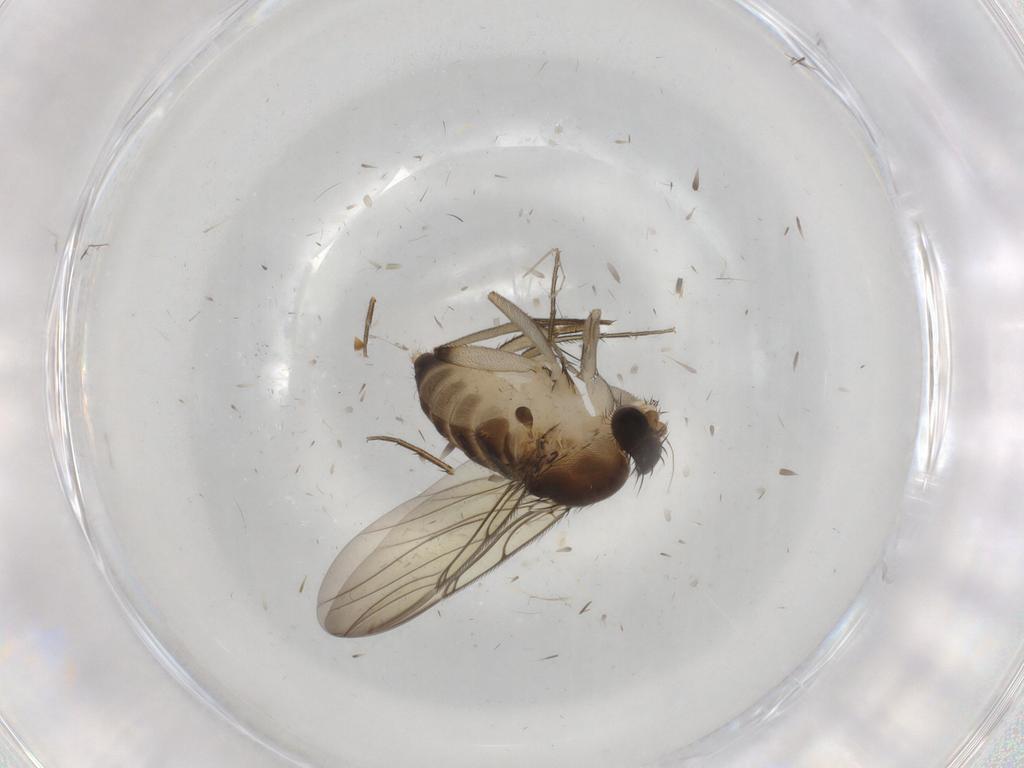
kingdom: Animalia
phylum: Arthropoda
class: Insecta
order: Diptera
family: Phoridae
